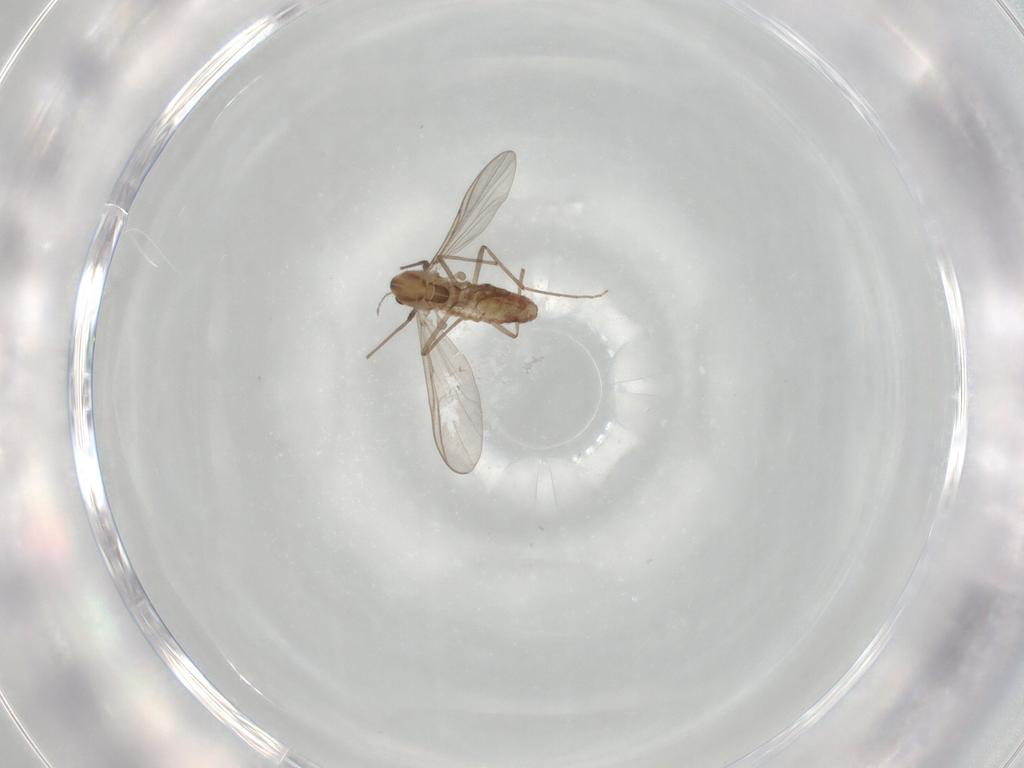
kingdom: Animalia
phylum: Arthropoda
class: Insecta
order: Diptera
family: Chironomidae
